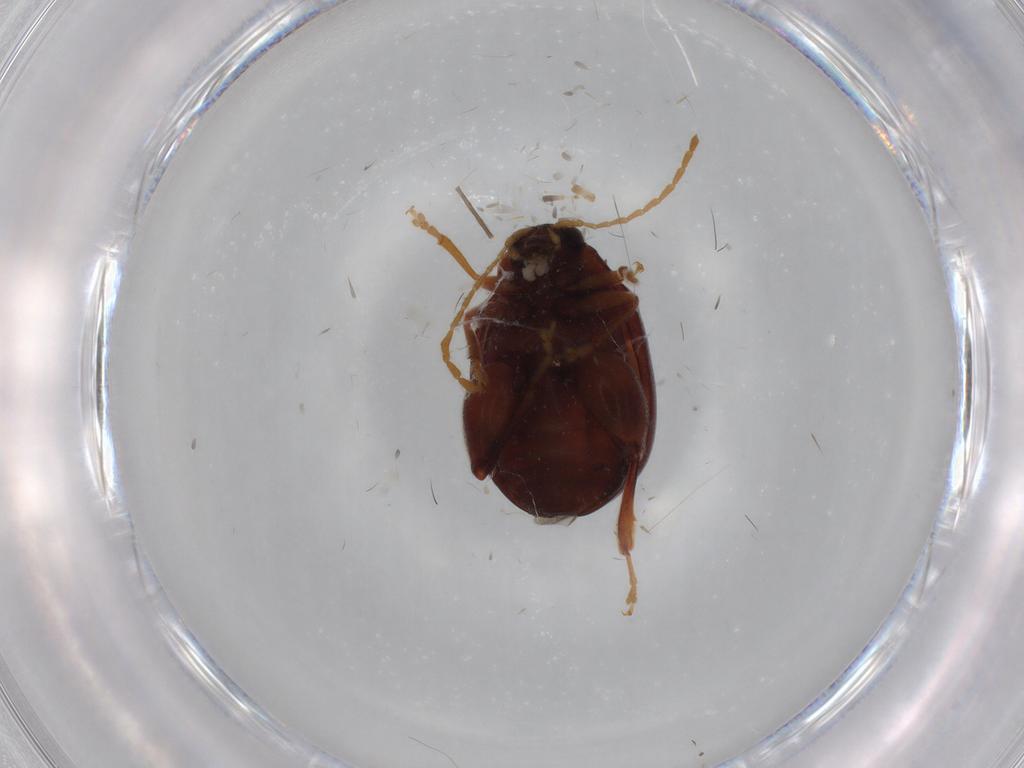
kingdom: Animalia
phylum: Arthropoda
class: Insecta
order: Coleoptera
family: Chrysomelidae
